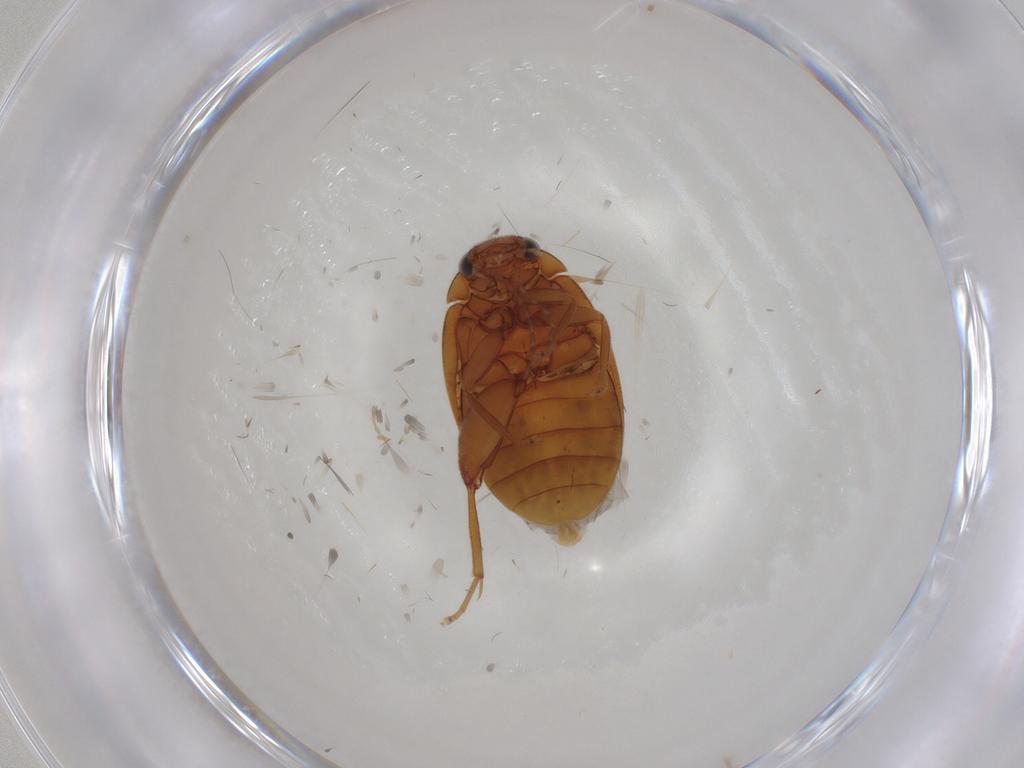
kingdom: Animalia
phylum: Arthropoda
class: Insecta
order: Coleoptera
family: Scirtidae
